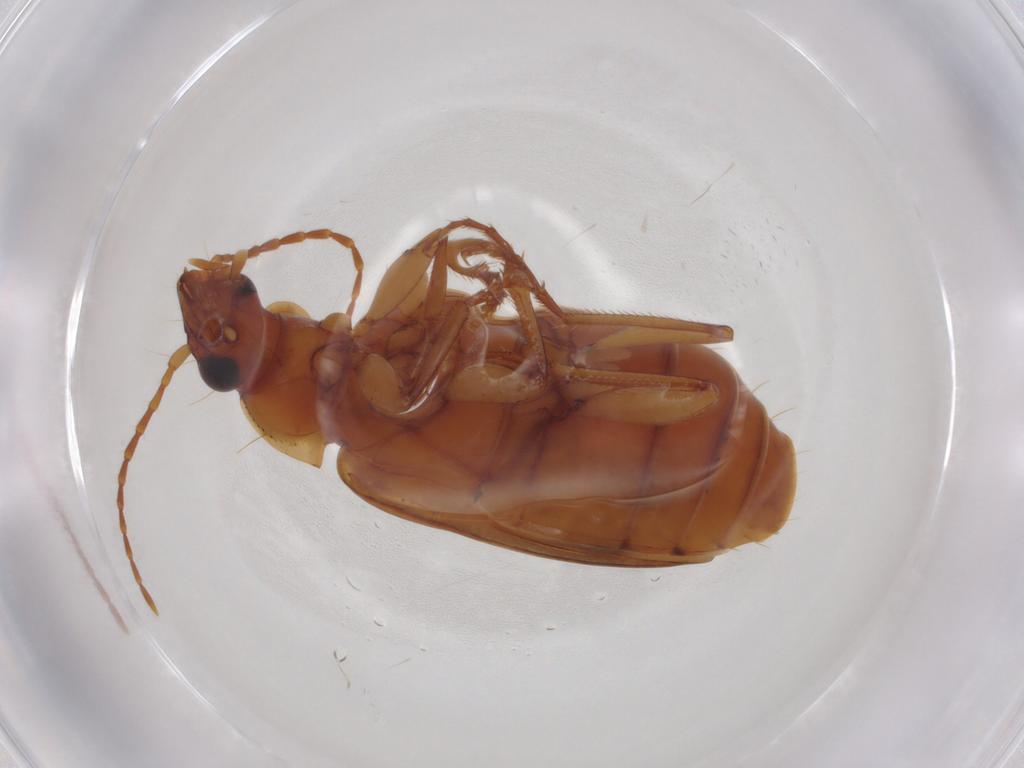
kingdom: Animalia
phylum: Arthropoda
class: Insecta
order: Coleoptera
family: Carabidae
